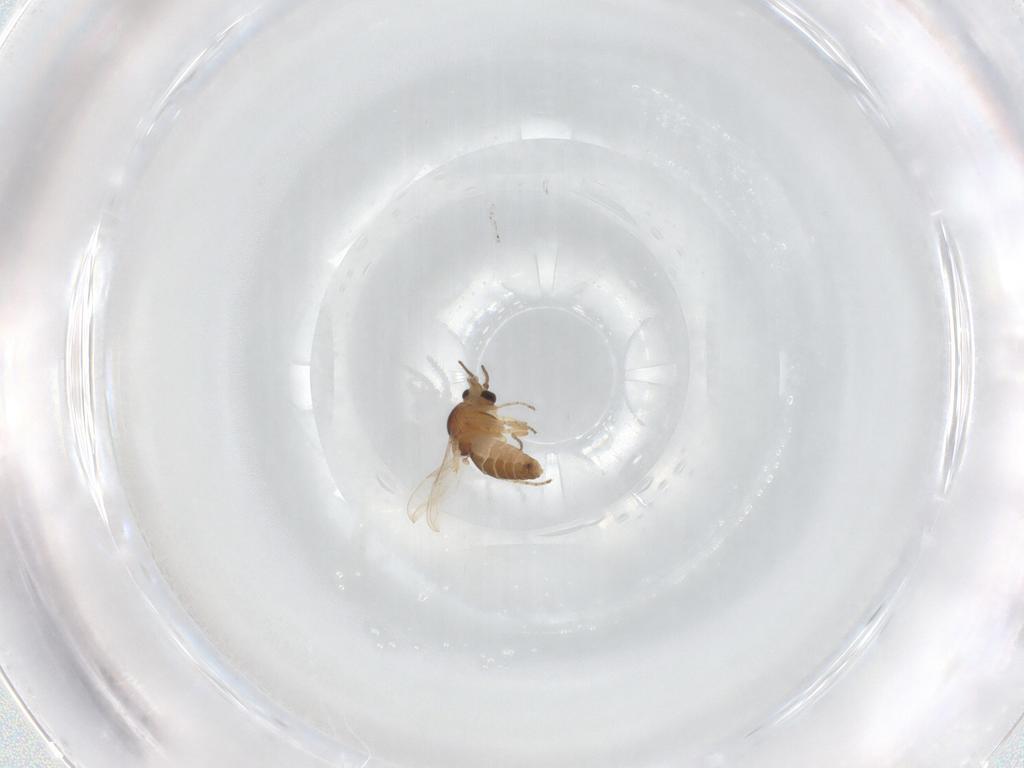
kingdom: Animalia
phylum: Arthropoda
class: Insecta
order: Diptera
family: Ceratopogonidae
